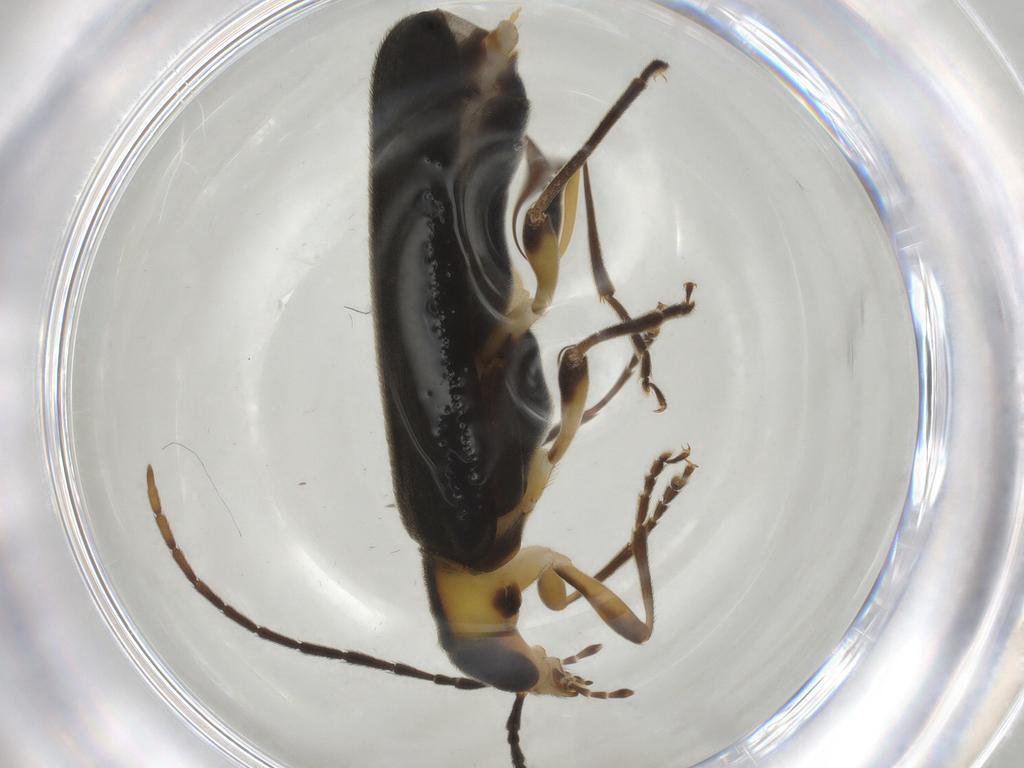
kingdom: Animalia
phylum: Arthropoda
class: Insecta
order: Coleoptera
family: Oedemeridae
